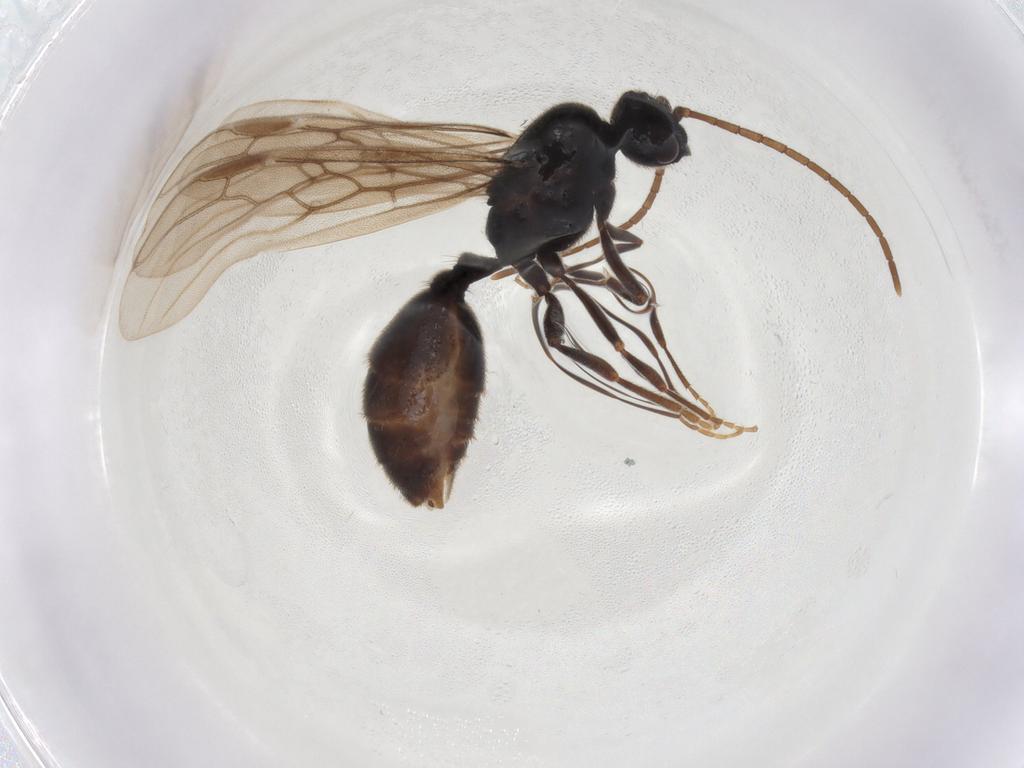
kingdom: Animalia
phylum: Arthropoda
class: Insecta
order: Hymenoptera
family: Formicidae
